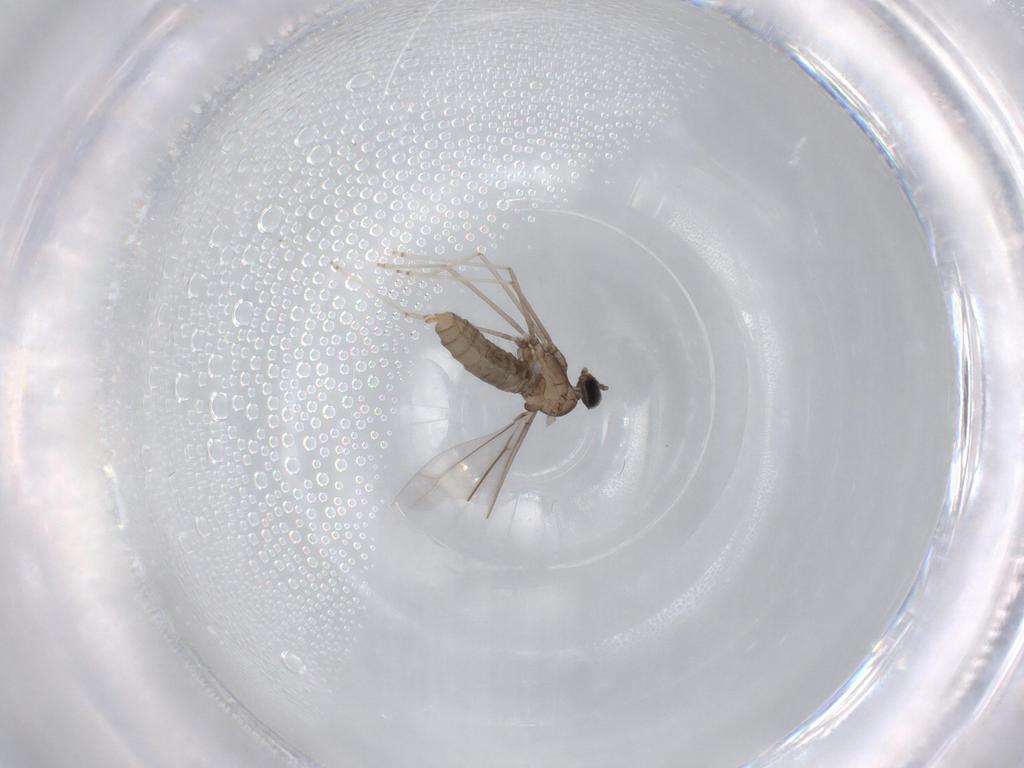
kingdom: Animalia
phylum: Arthropoda
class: Insecta
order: Diptera
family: Cecidomyiidae
